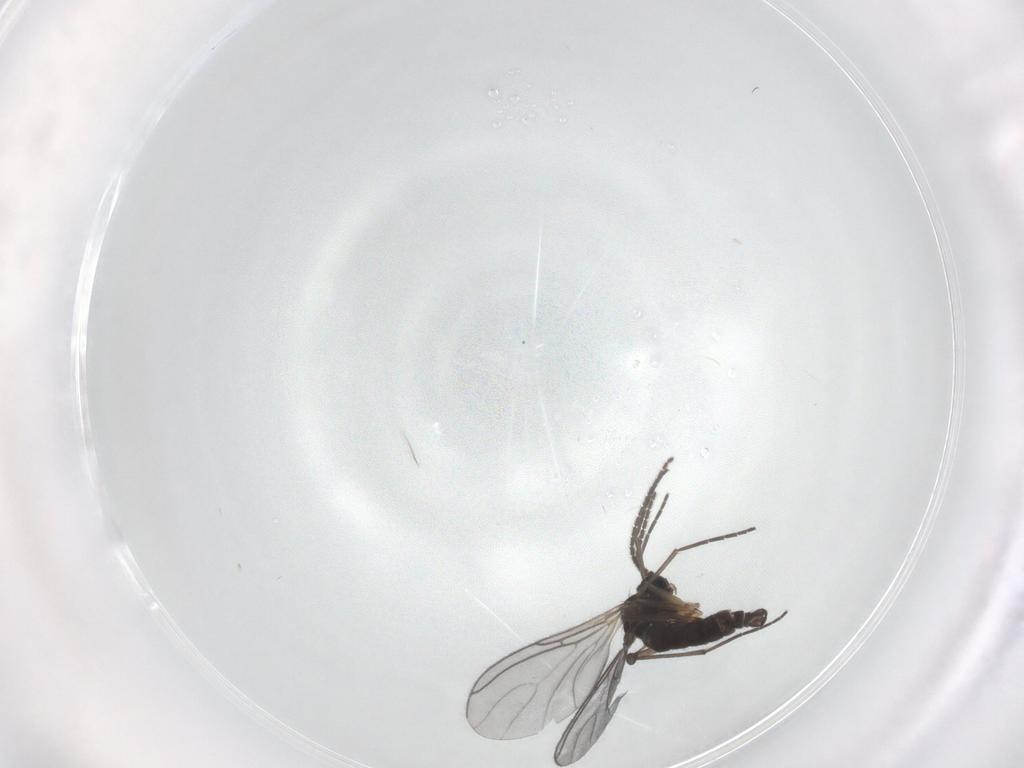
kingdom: Animalia
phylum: Arthropoda
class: Insecta
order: Diptera
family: Sciaridae
